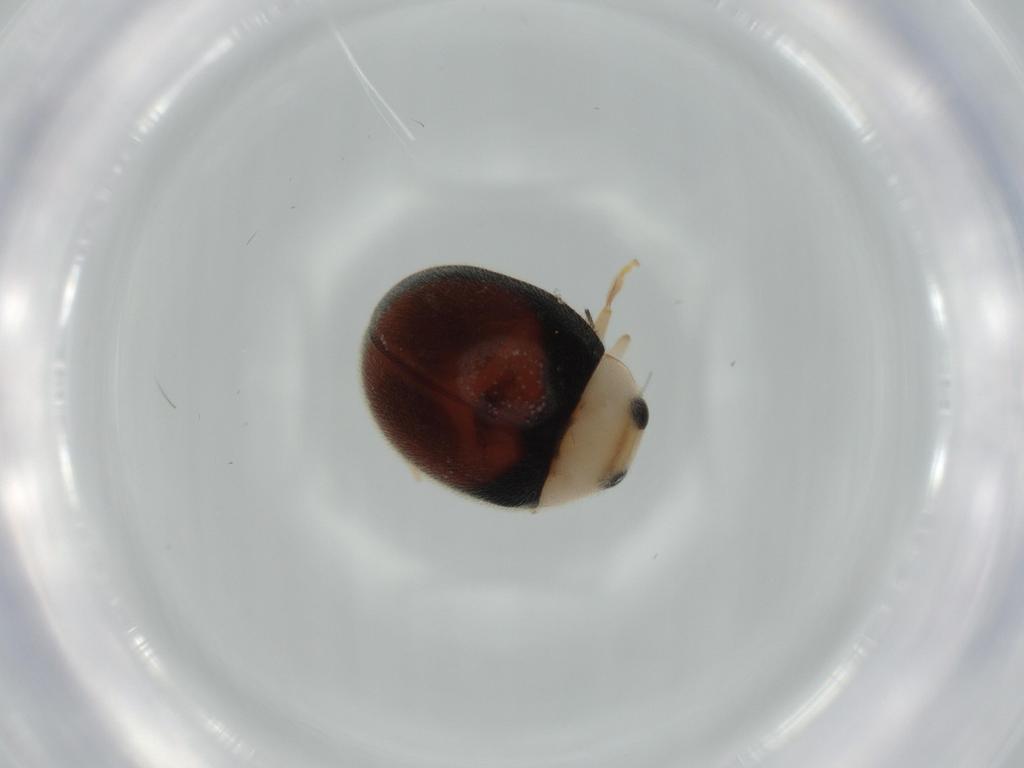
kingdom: Animalia
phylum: Arthropoda
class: Insecta
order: Coleoptera
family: Coccinellidae
